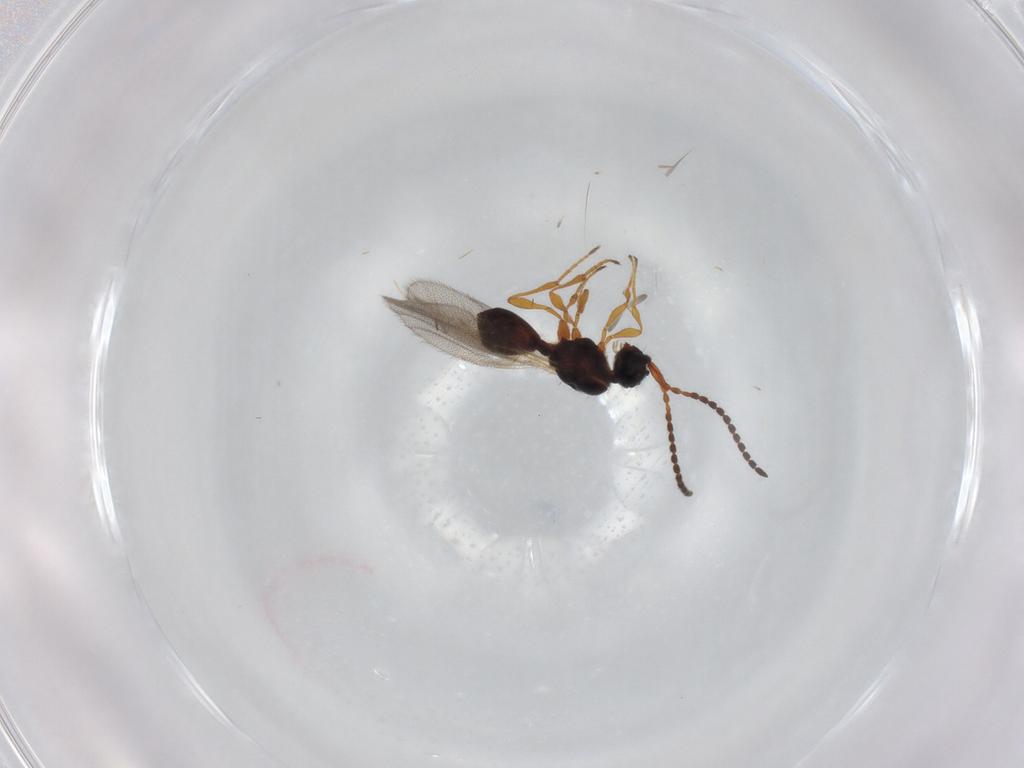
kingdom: Animalia
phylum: Arthropoda
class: Insecta
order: Hymenoptera
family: Diapriidae
